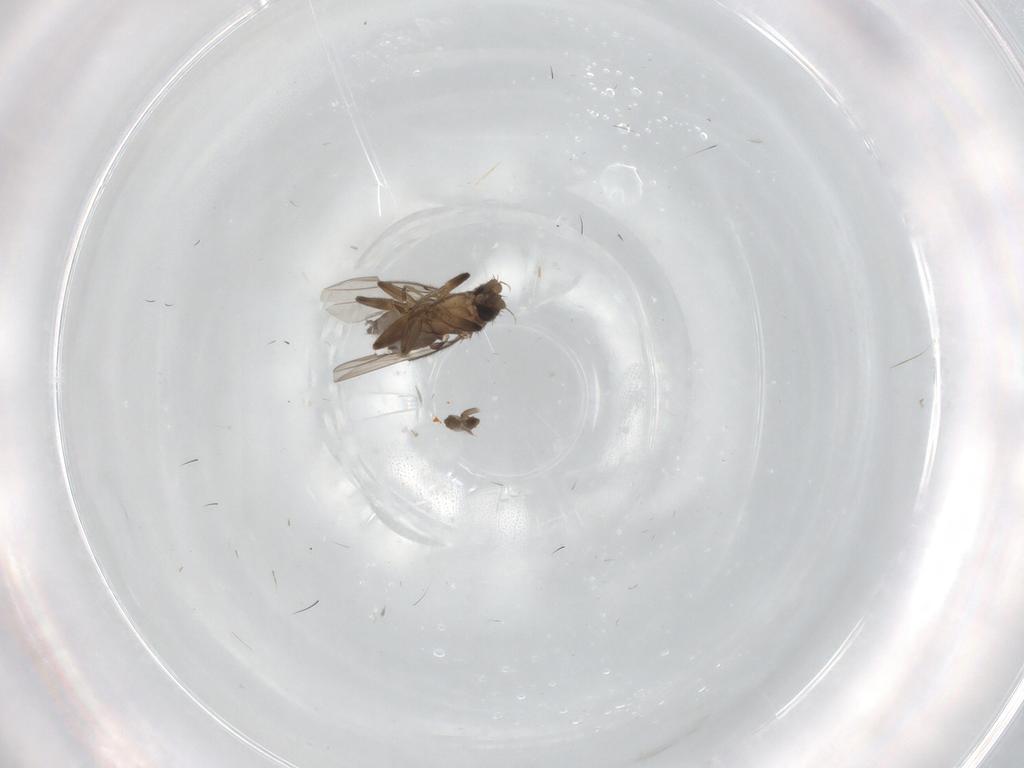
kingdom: Animalia
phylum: Arthropoda
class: Insecta
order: Diptera
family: Phoridae
